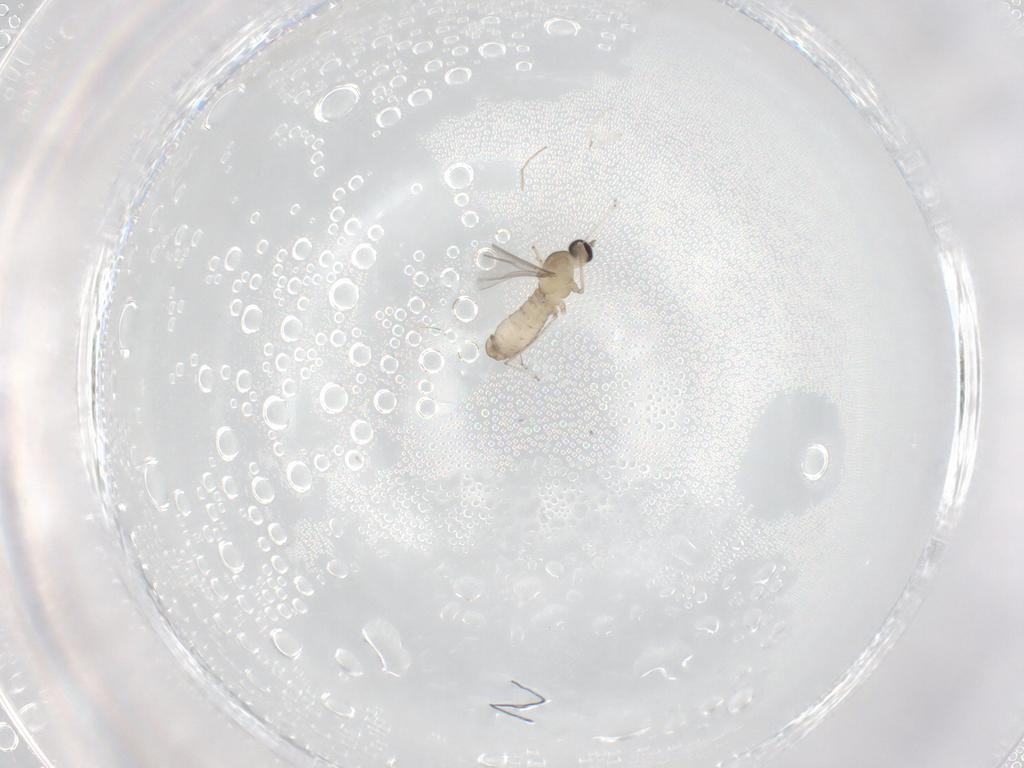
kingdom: Animalia
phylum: Arthropoda
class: Insecta
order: Diptera
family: Cecidomyiidae
